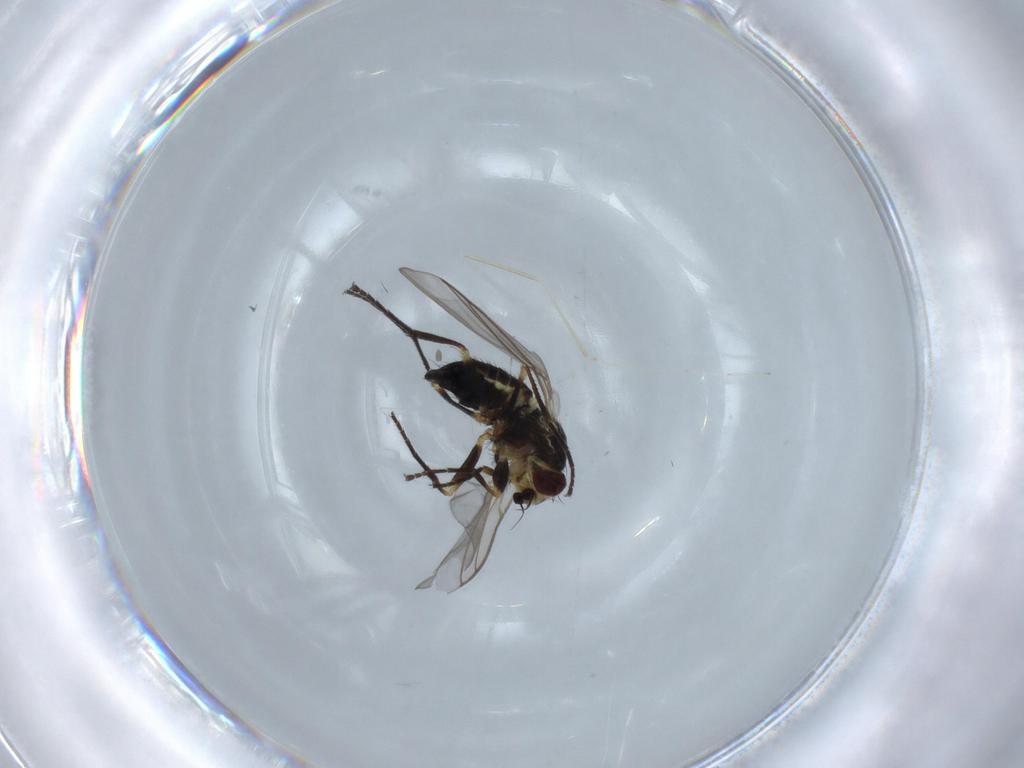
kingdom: Animalia
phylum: Arthropoda
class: Insecta
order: Diptera
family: Agromyzidae
